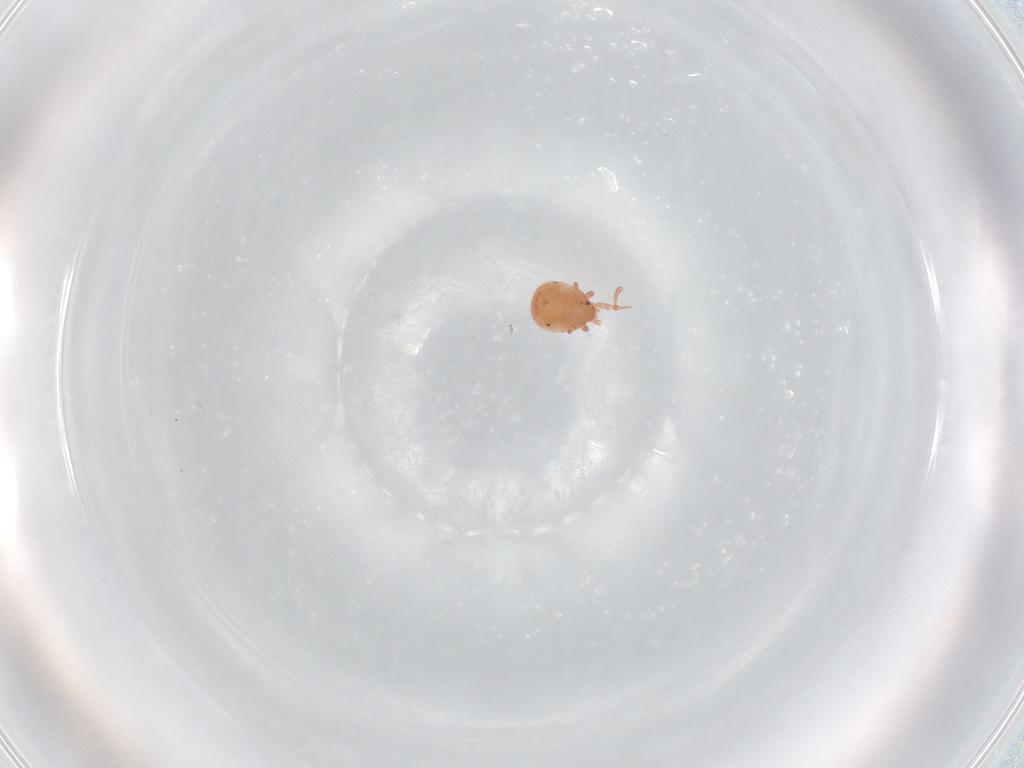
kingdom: Animalia
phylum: Arthropoda
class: Arachnida
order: Mesostigmata
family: Zerconidae
